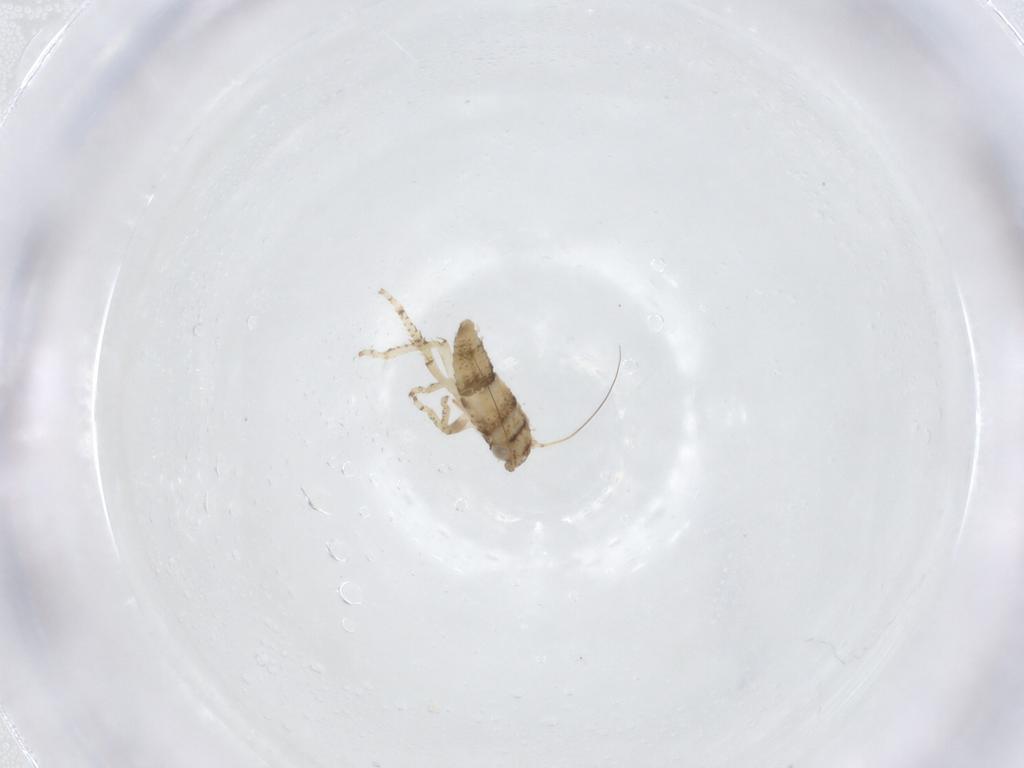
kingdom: Animalia
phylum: Arthropoda
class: Insecta
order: Hemiptera
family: Cicadellidae
